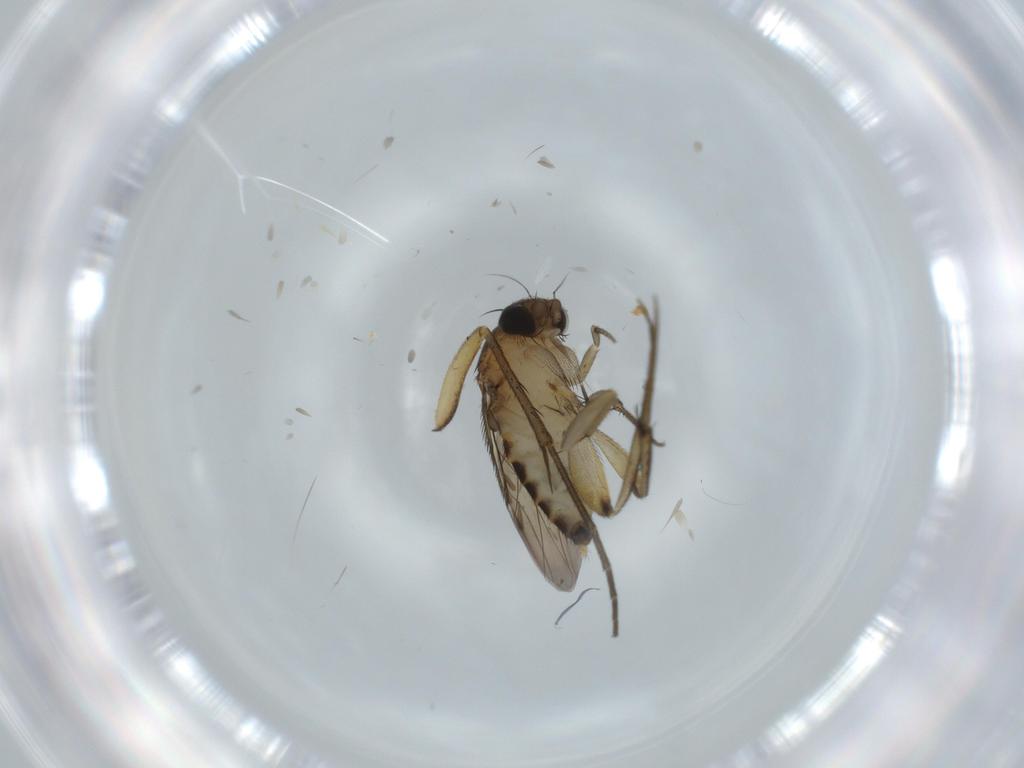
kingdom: Animalia
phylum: Arthropoda
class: Insecta
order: Diptera
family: Phoridae
